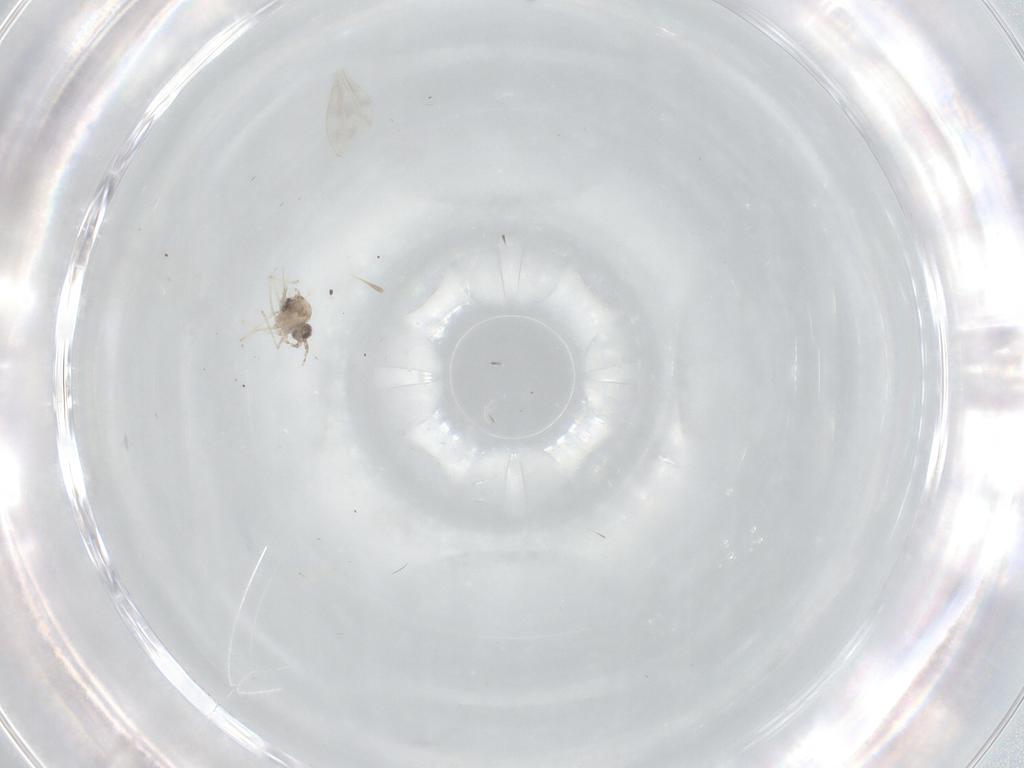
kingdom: Animalia
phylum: Arthropoda
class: Insecta
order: Diptera
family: Cecidomyiidae
